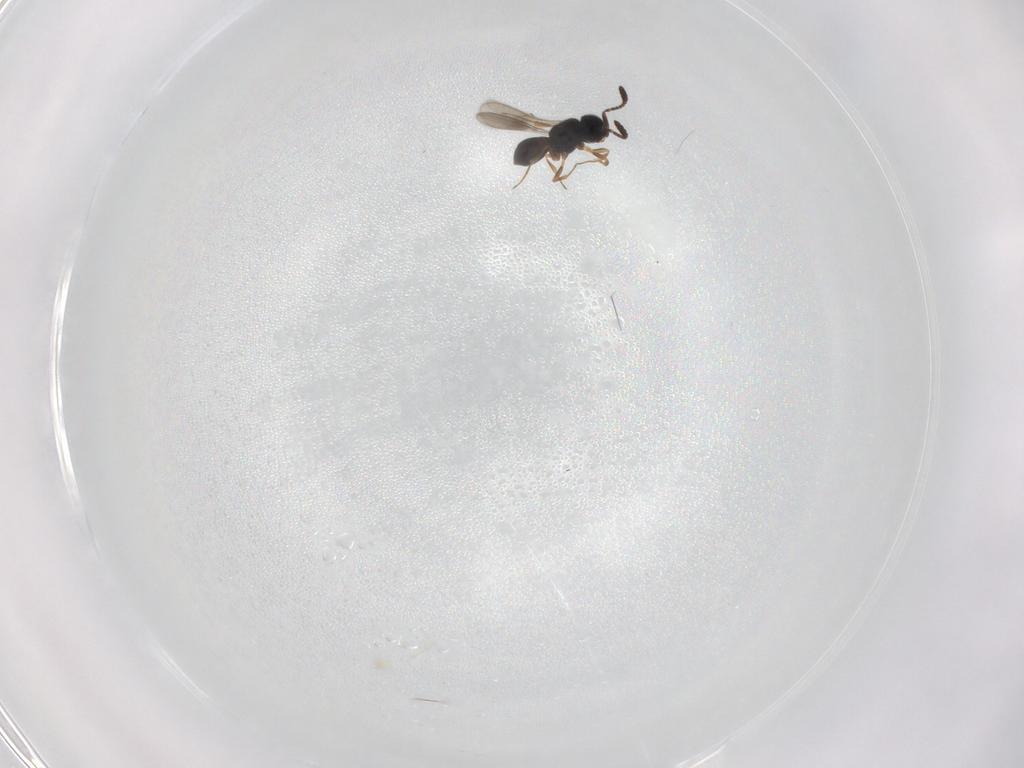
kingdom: Animalia
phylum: Arthropoda
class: Insecta
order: Hymenoptera
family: Scelionidae
